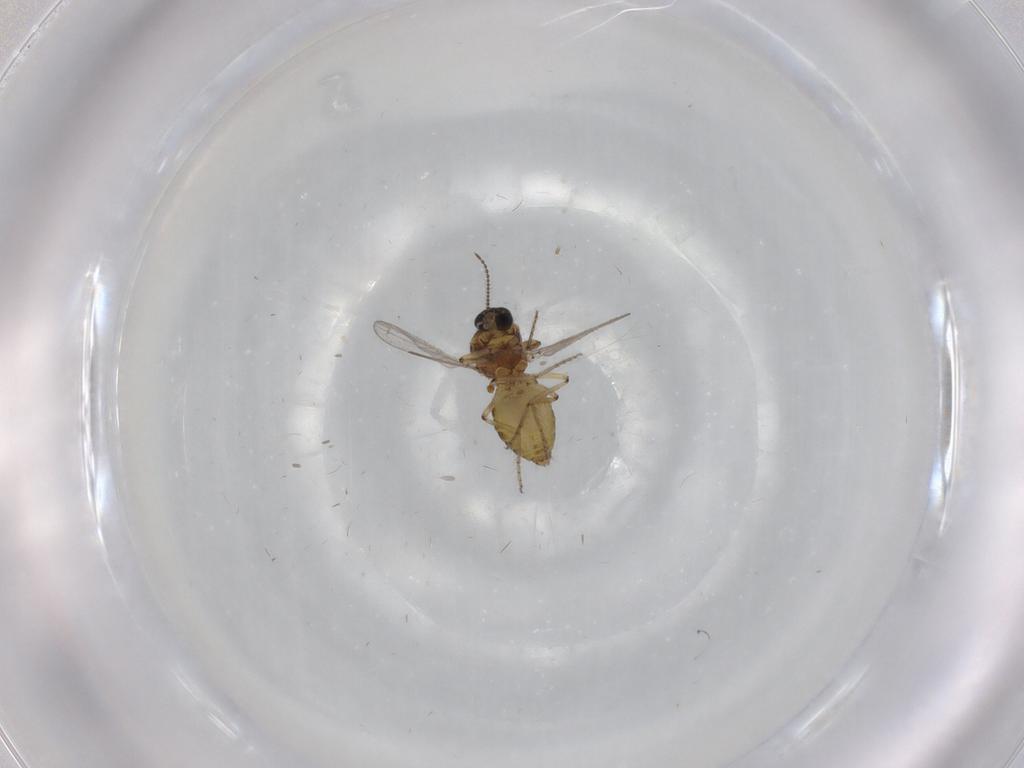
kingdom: Animalia
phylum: Arthropoda
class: Insecta
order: Diptera
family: Ceratopogonidae
